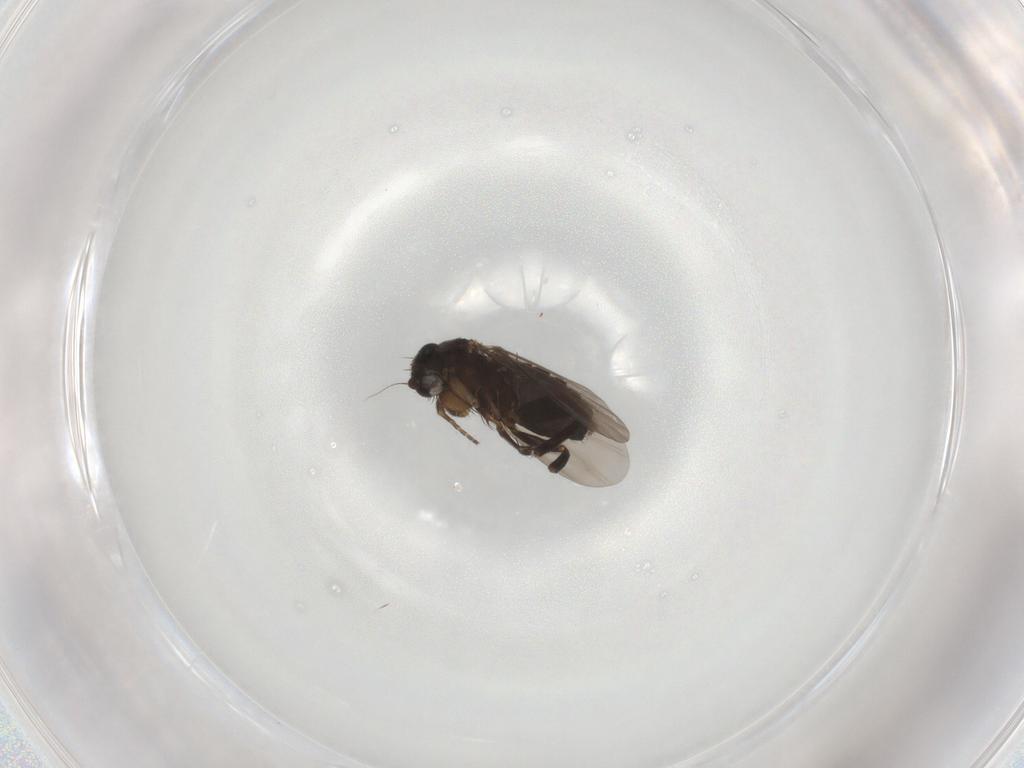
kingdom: Animalia
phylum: Arthropoda
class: Insecta
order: Diptera
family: Phoridae
